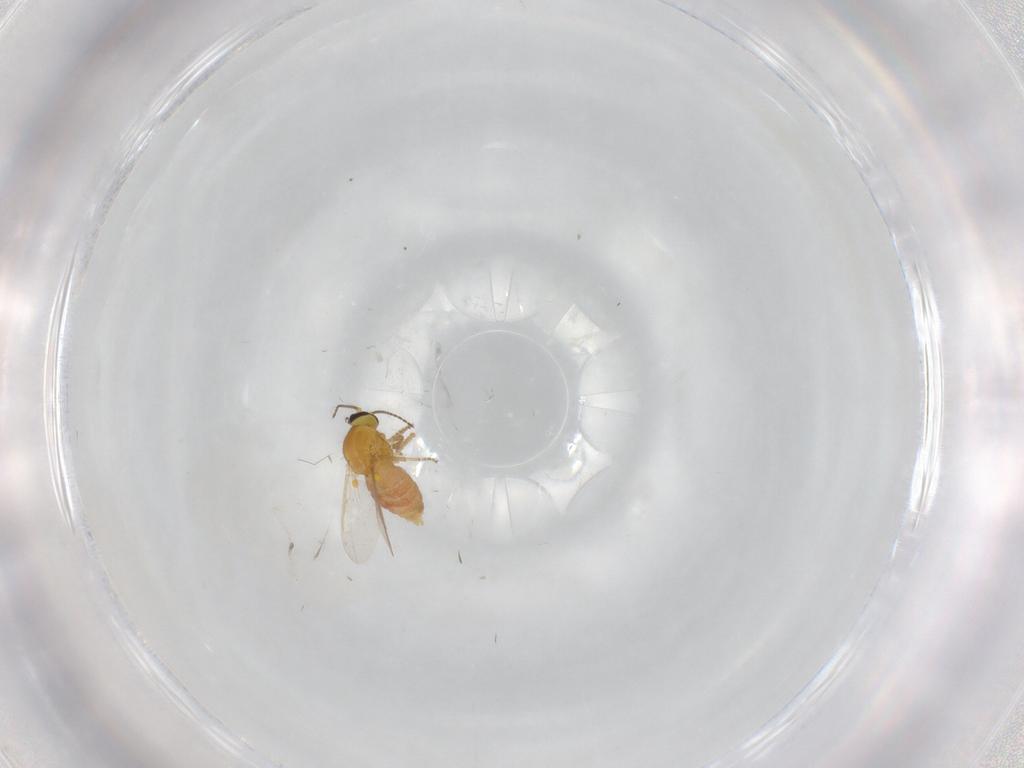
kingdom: Animalia
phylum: Arthropoda
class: Insecta
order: Diptera
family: Ceratopogonidae
